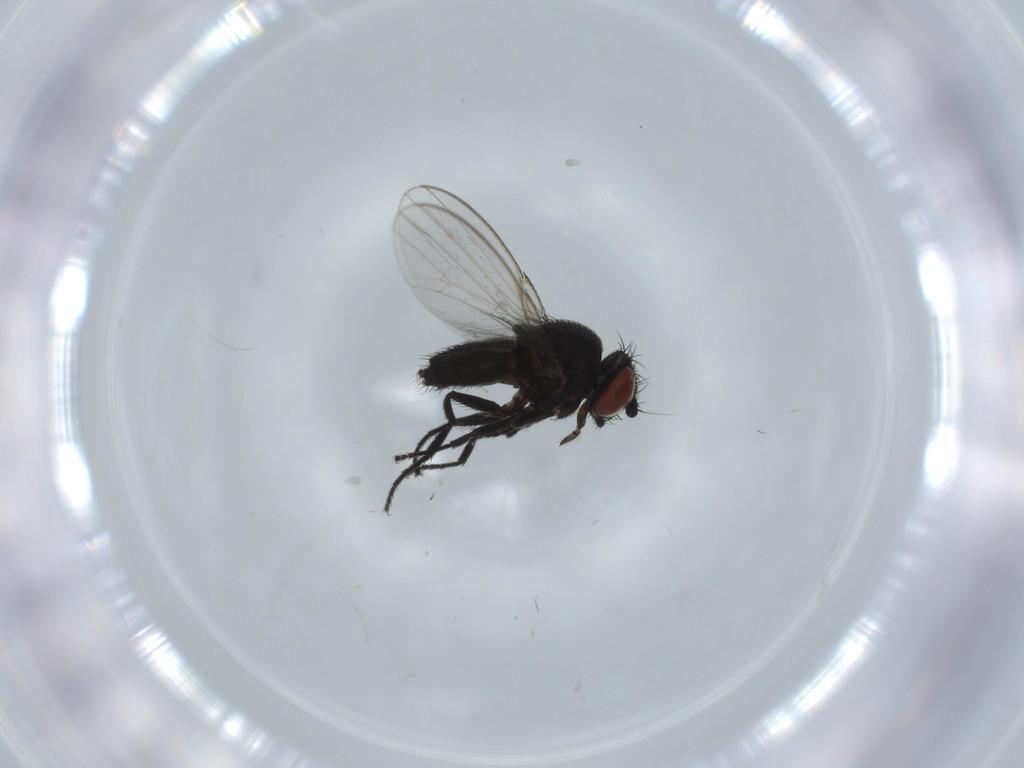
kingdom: Animalia
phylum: Arthropoda
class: Insecta
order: Diptera
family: Milichiidae
